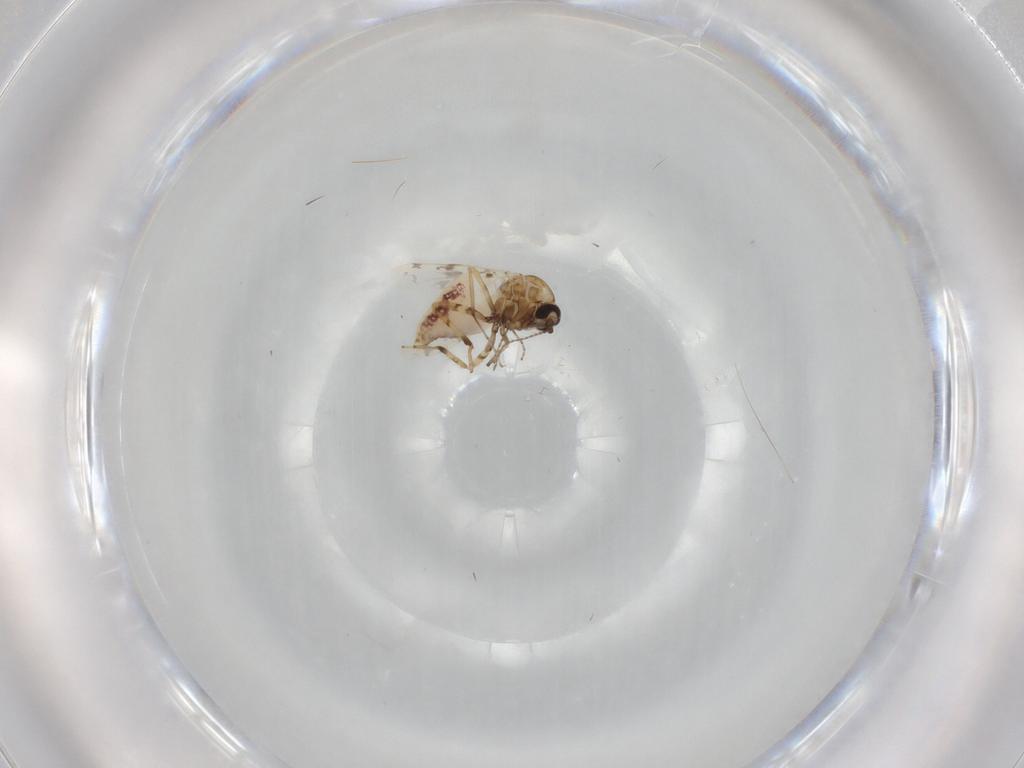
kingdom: Animalia
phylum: Arthropoda
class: Insecta
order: Diptera
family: Ceratopogonidae
